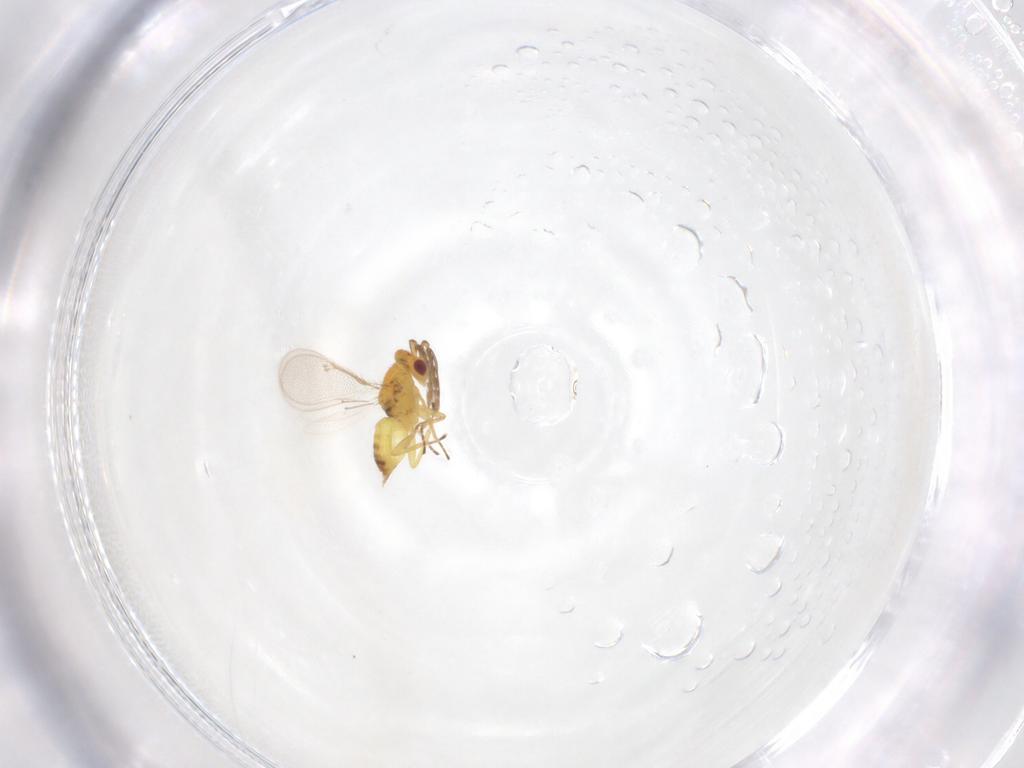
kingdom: Animalia
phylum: Arthropoda
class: Insecta
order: Hymenoptera
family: Eulophidae
